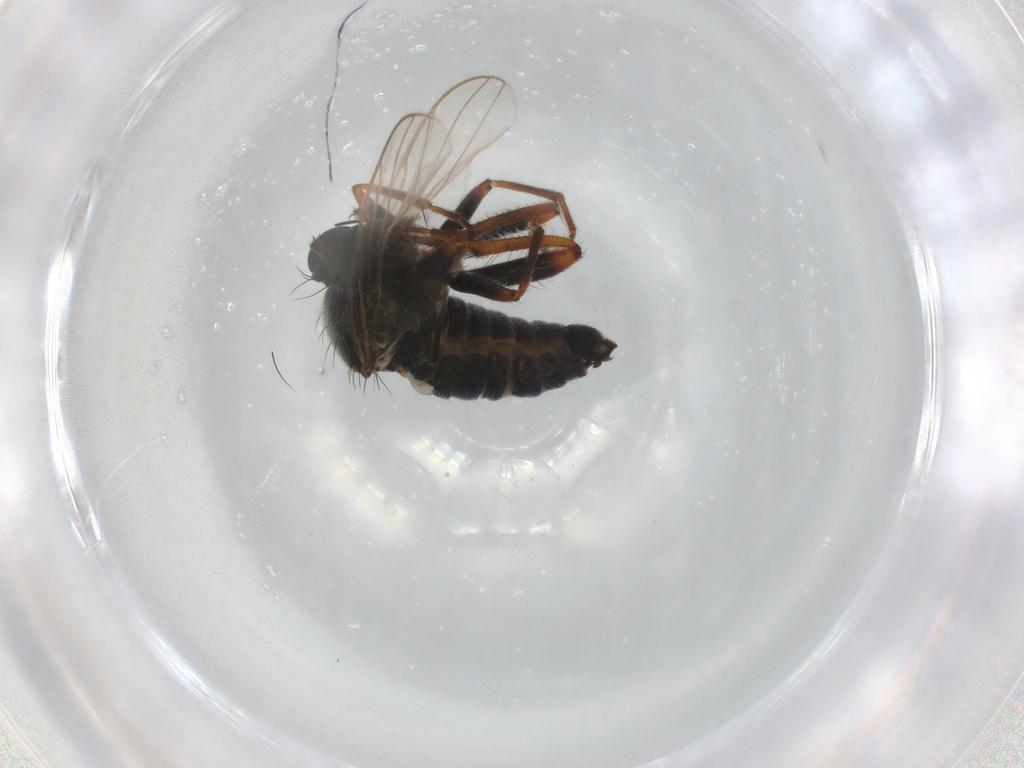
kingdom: Animalia
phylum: Arthropoda
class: Insecta
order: Diptera
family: Hybotidae
